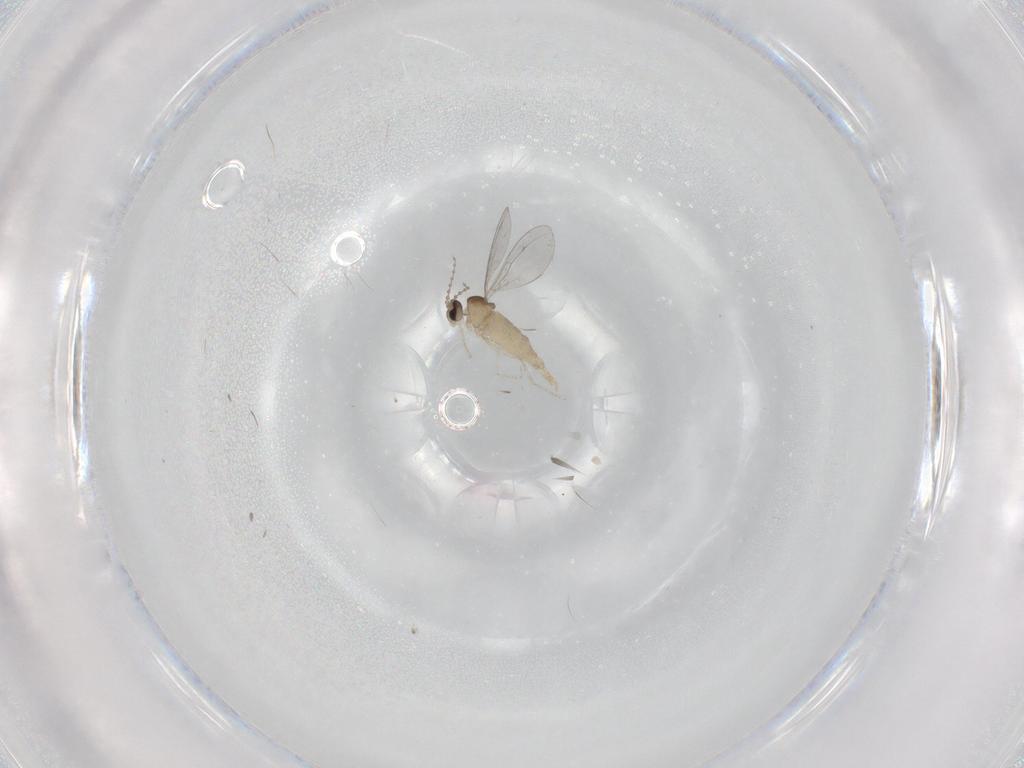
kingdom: Animalia
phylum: Arthropoda
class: Insecta
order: Diptera
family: Cecidomyiidae
